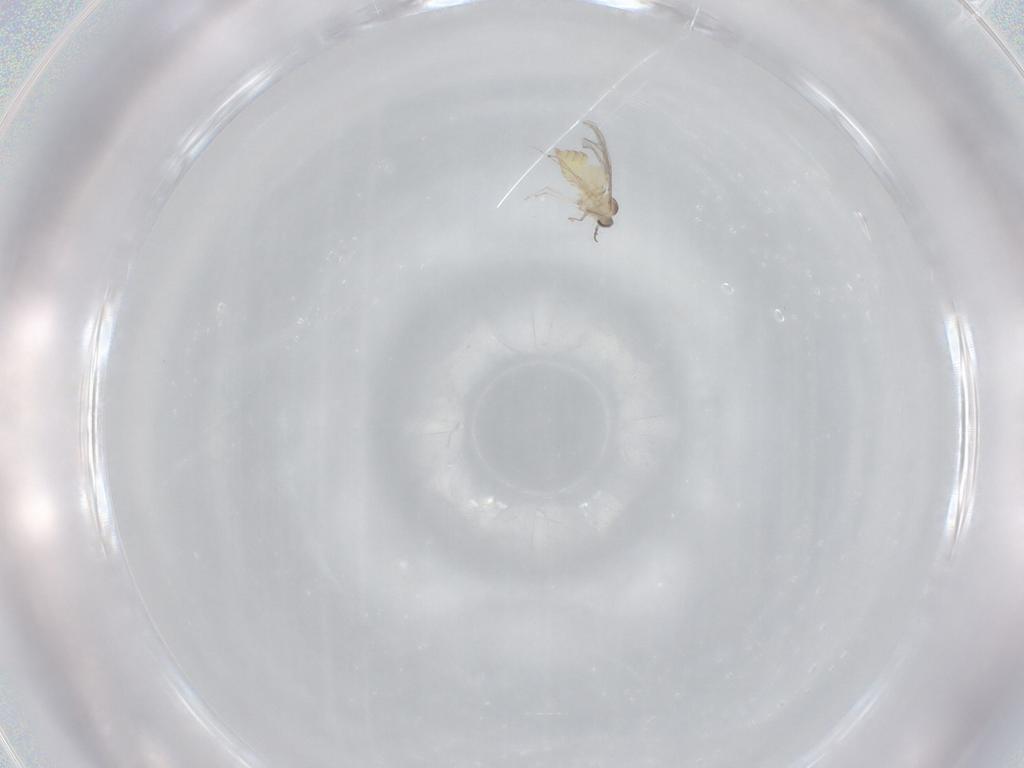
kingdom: Animalia
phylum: Arthropoda
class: Insecta
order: Diptera
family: Cecidomyiidae
